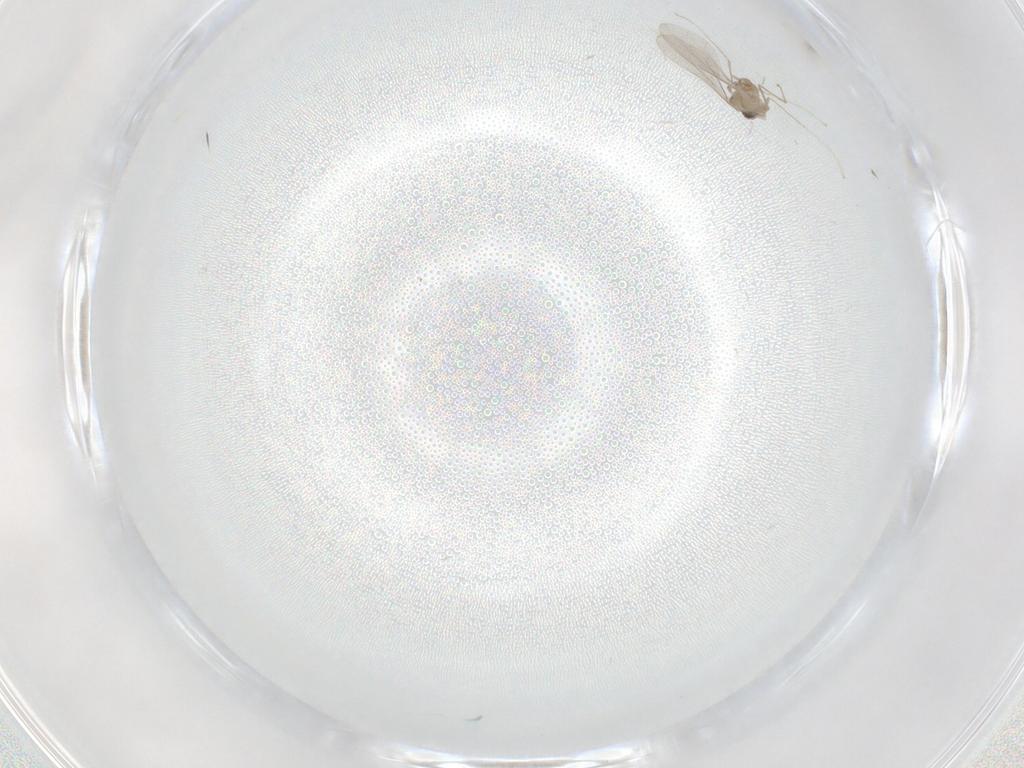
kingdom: Animalia
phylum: Arthropoda
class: Insecta
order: Diptera
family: Cecidomyiidae
